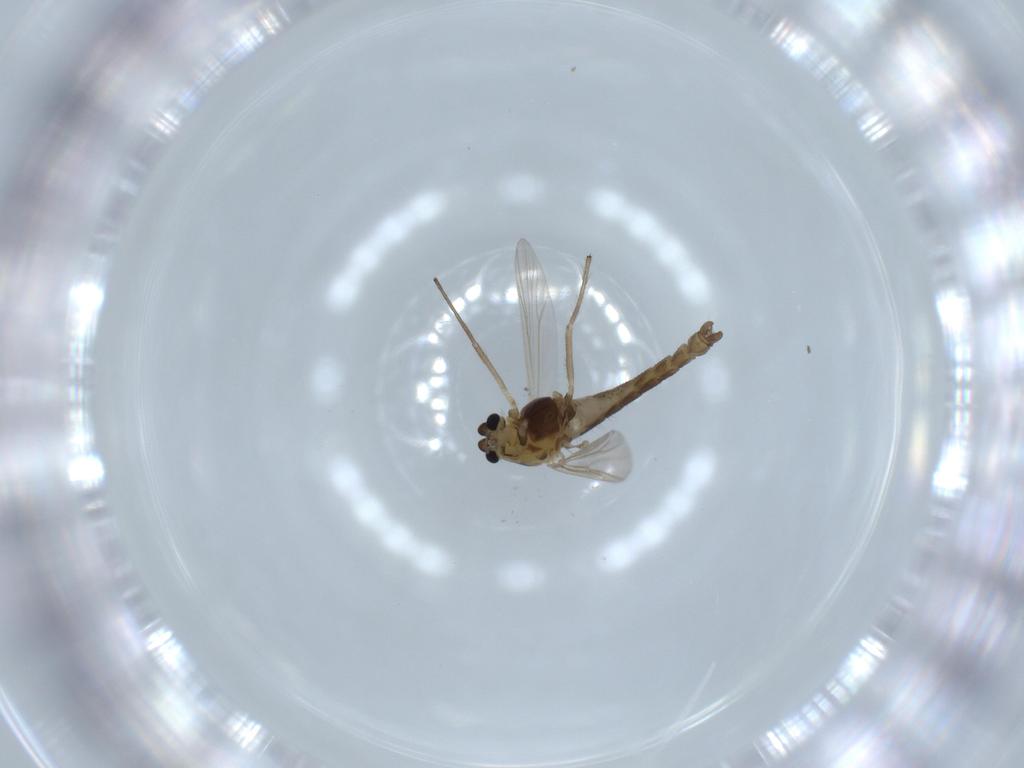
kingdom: Animalia
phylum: Arthropoda
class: Insecta
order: Diptera
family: Chironomidae
